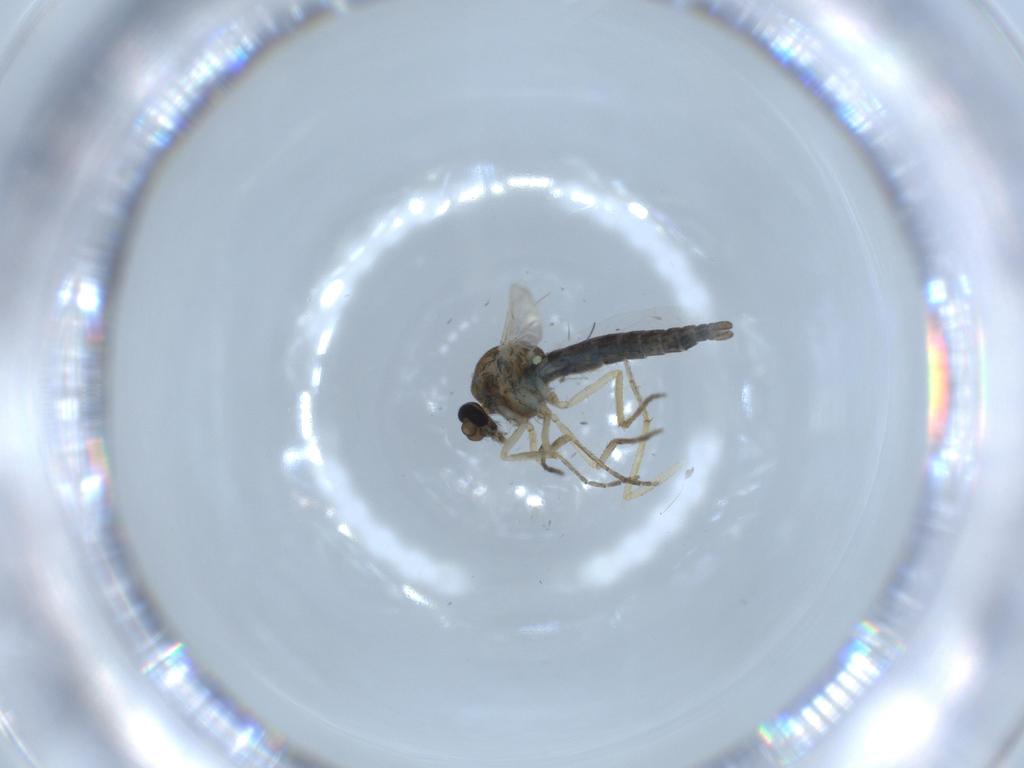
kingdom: Animalia
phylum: Arthropoda
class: Insecta
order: Diptera
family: Ceratopogonidae
